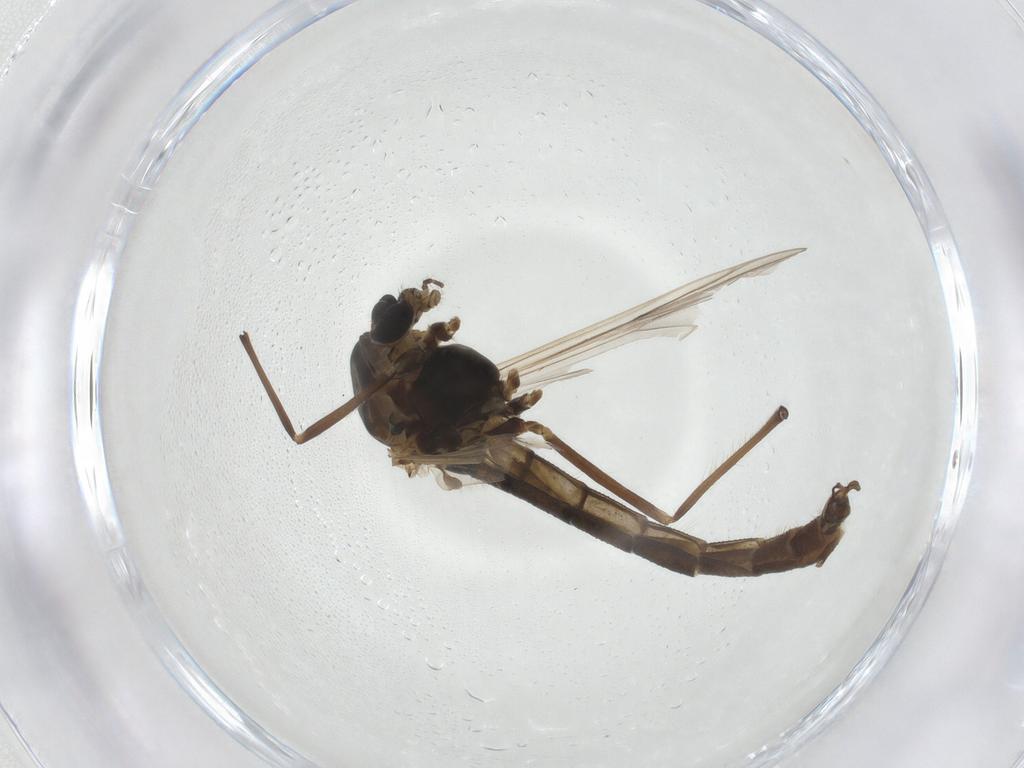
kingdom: Animalia
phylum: Arthropoda
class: Insecta
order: Diptera
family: Chironomidae
